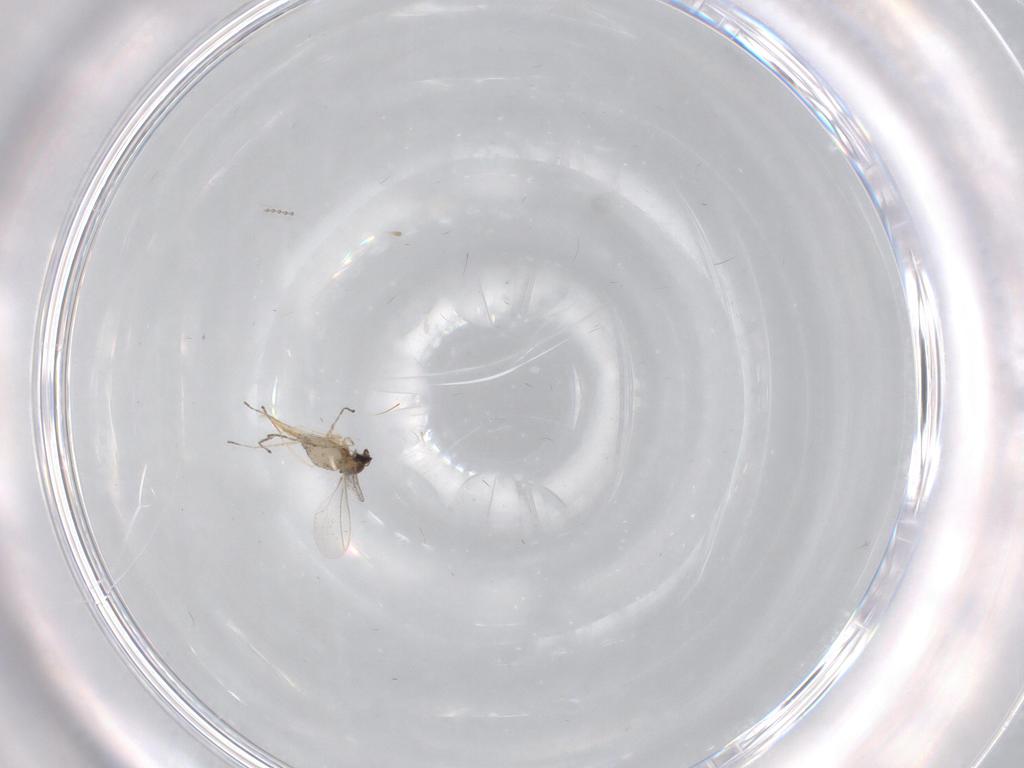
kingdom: Animalia
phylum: Arthropoda
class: Insecta
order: Diptera
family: Cecidomyiidae
